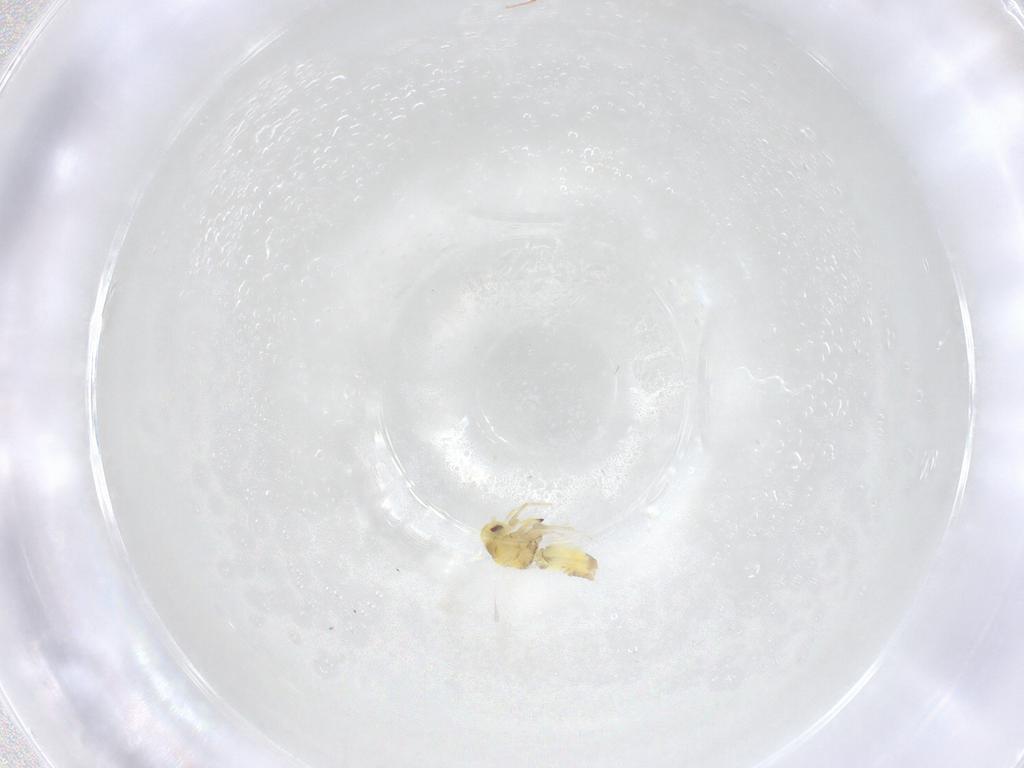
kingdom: Animalia
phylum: Arthropoda
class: Insecta
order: Hemiptera
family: Aleyrodidae
